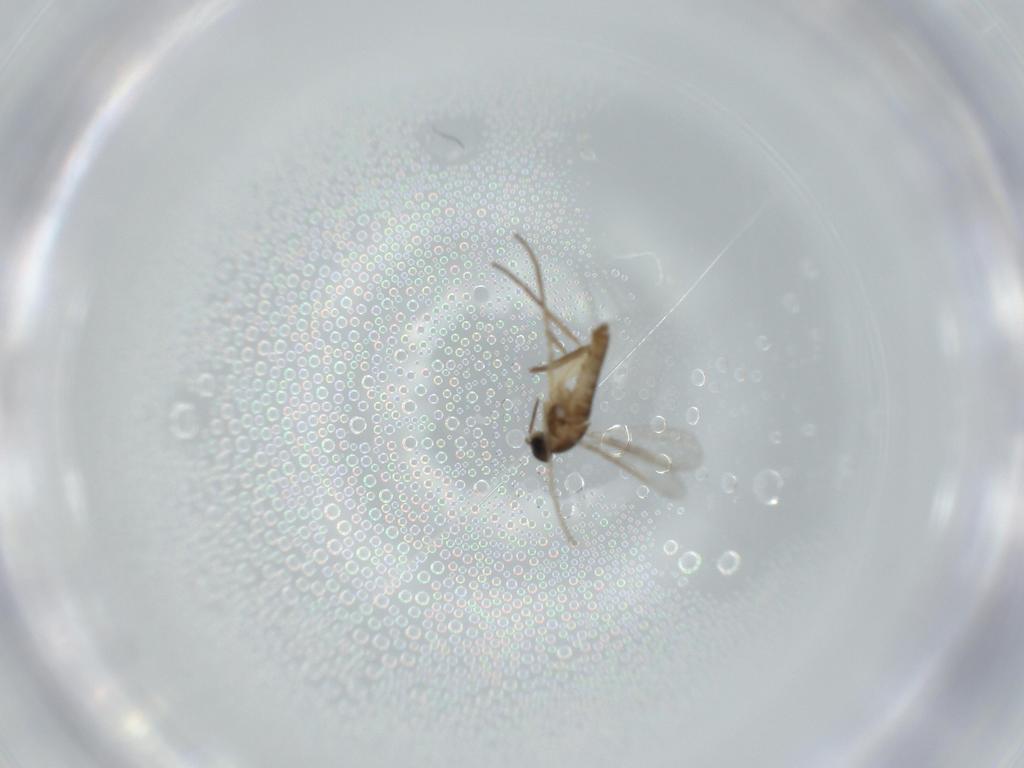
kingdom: Animalia
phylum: Arthropoda
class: Insecta
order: Diptera
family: Cecidomyiidae
